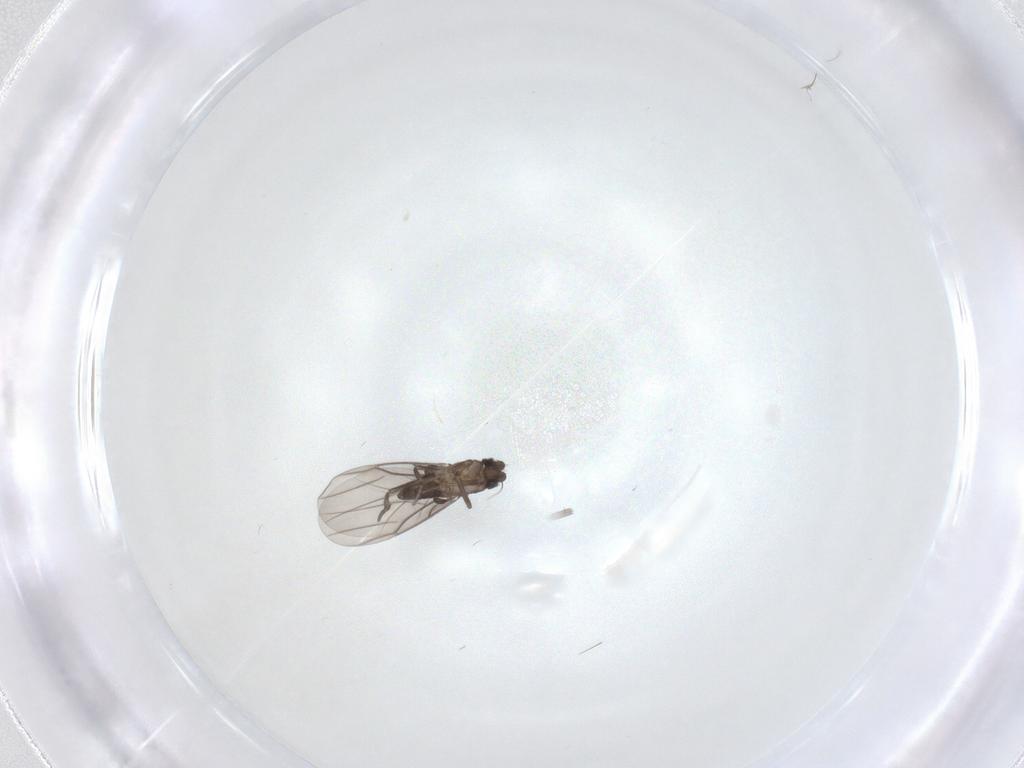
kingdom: Animalia
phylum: Arthropoda
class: Insecta
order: Diptera
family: Phoridae
